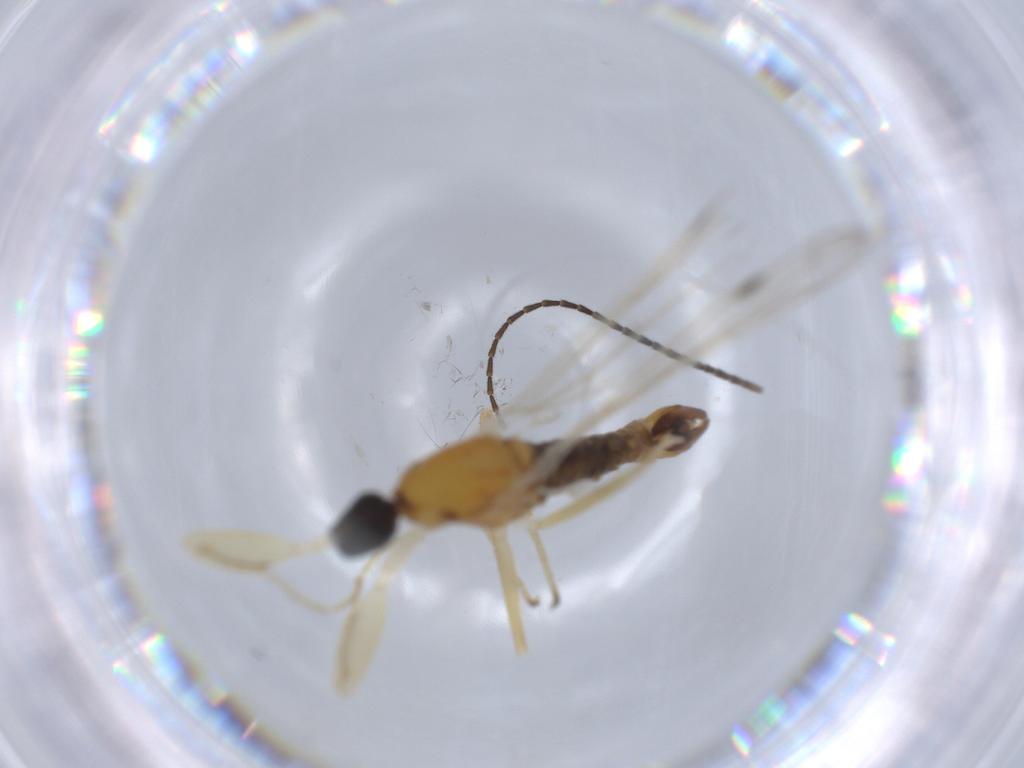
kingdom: Animalia
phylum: Arthropoda
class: Insecta
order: Diptera
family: Chironomidae
